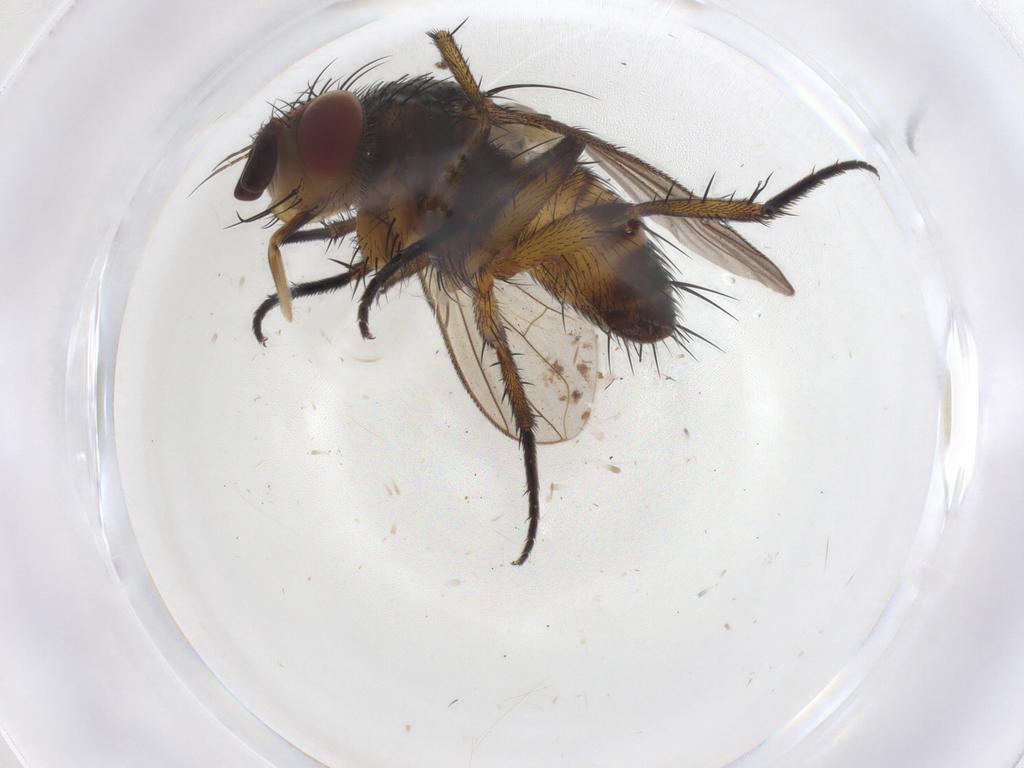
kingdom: Animalia
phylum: Arthropoda
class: Insecta
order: Diptera
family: Tachinidae
